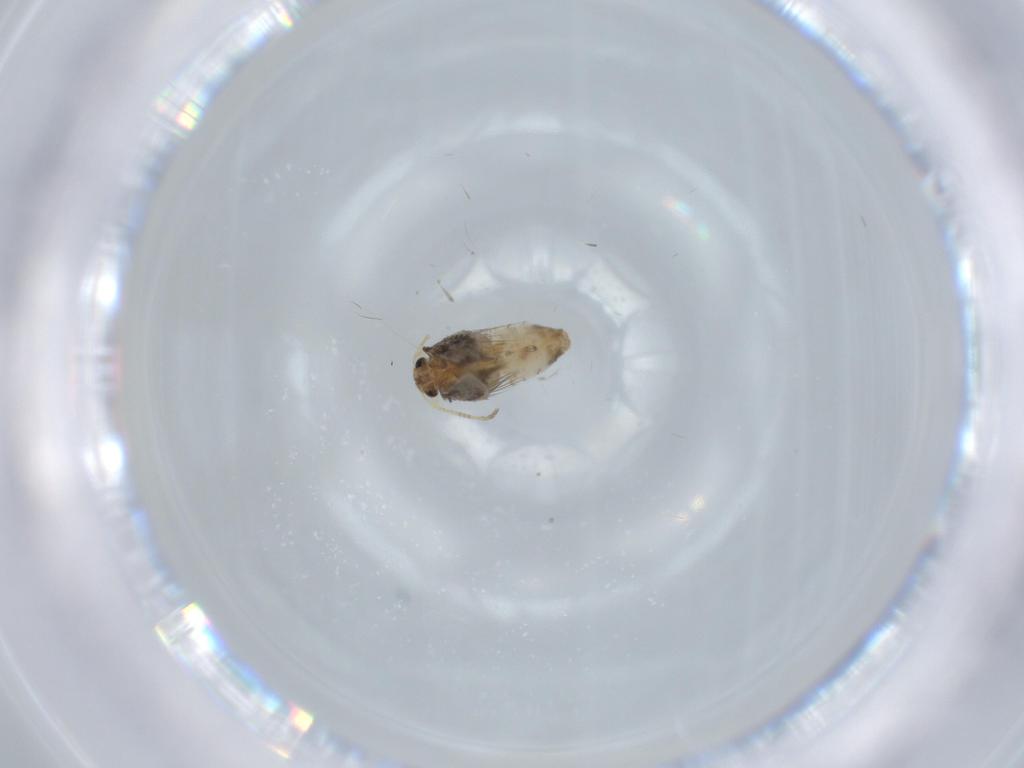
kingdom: Animalia
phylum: Arthropoda
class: Insecta
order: Lepidoptera
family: Nepticulidae
